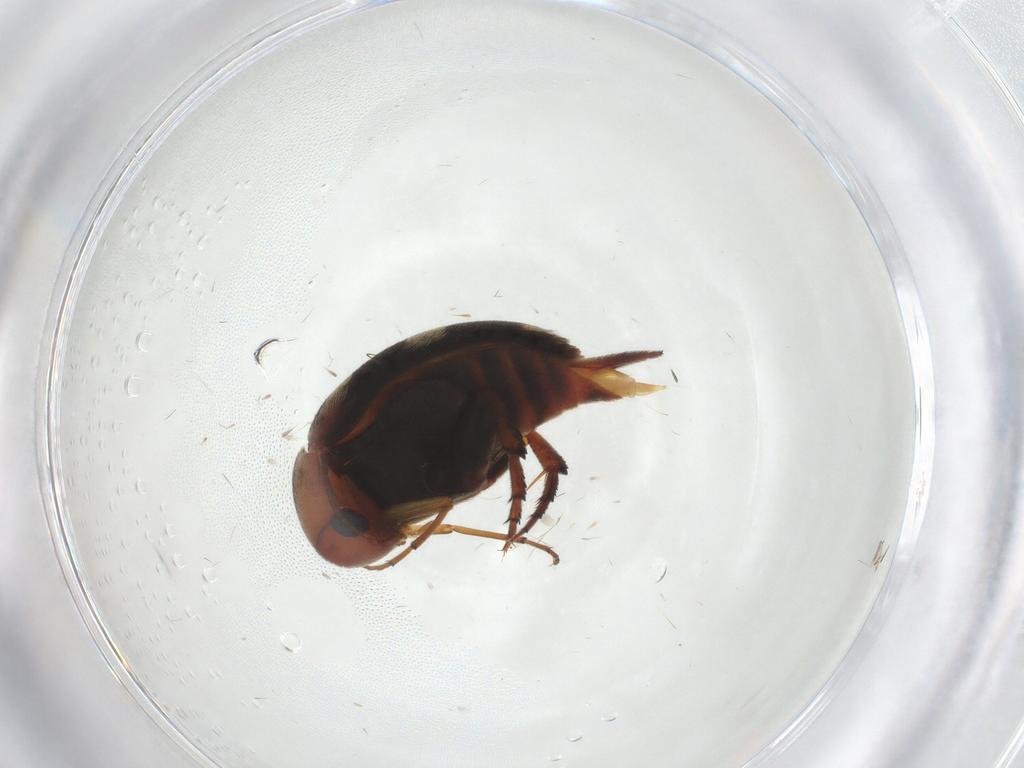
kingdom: Animalia
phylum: Arthropoda
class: Insecta
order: Coleoptera
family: Mordellidae
